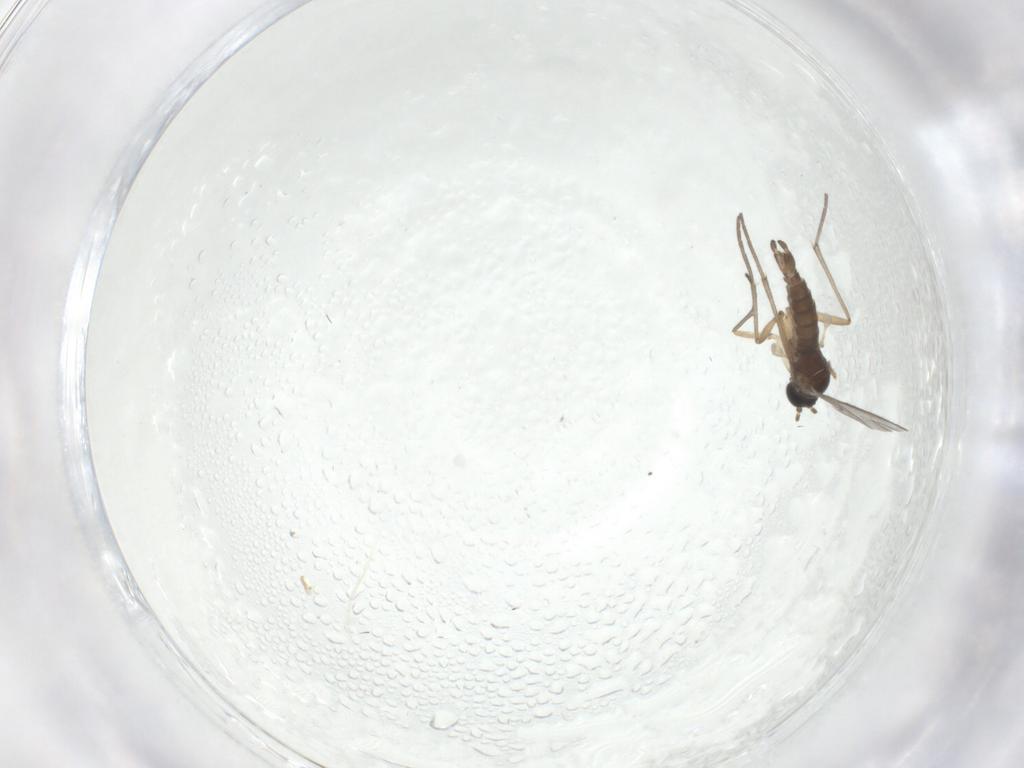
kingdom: Animalia
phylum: Arthropoda
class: Insecta
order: Diptera
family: Sciaridae
